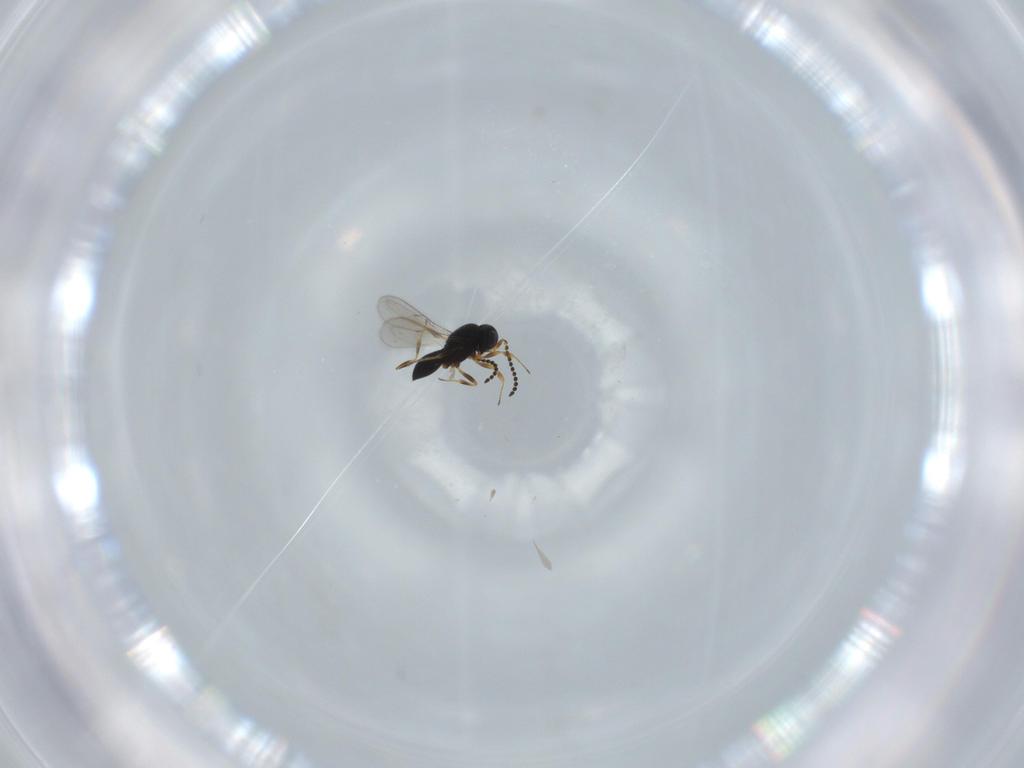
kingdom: Animalia
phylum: Arthropoda
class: Insecta
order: Hymenoptera
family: Scelionidae
